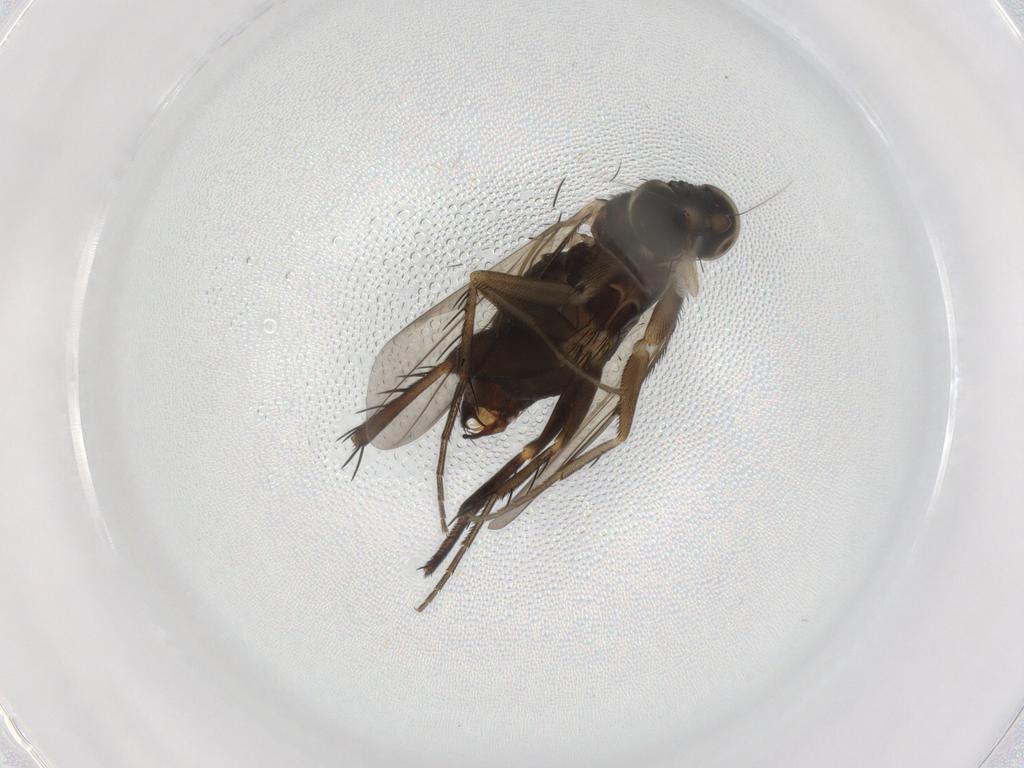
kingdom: Animalia
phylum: Arthropoda
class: Insecta
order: Diptera
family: Phoridae
